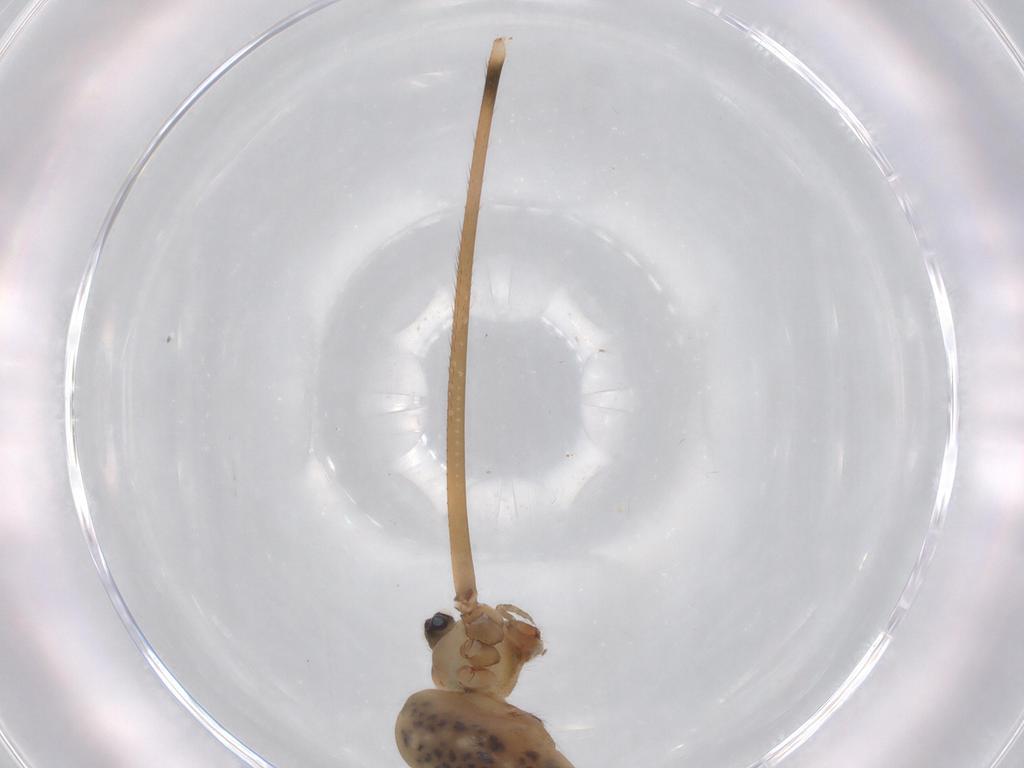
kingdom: Animalia
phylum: Arthropoda
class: Arachnida
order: Araneae
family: Pholcidae
